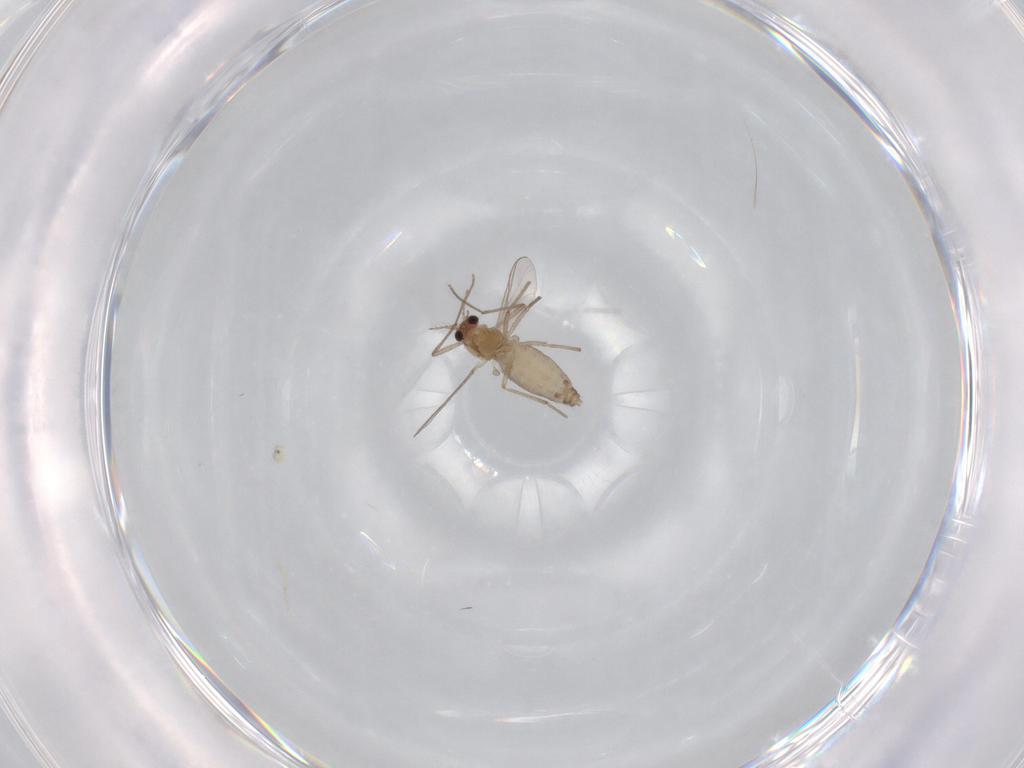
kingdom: Animalia
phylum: Arthropoda
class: Insecta
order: Diptera
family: Chironomidae
